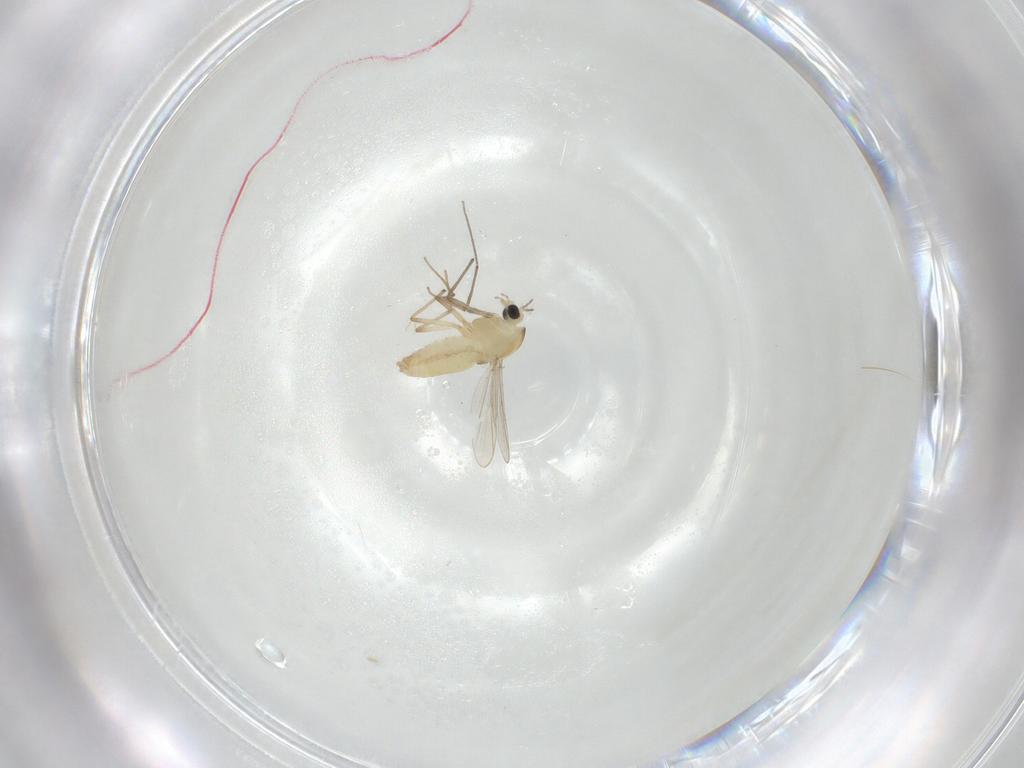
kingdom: Animalia
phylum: Arthropoda
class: Insecta
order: Diptera
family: Chironomidae
